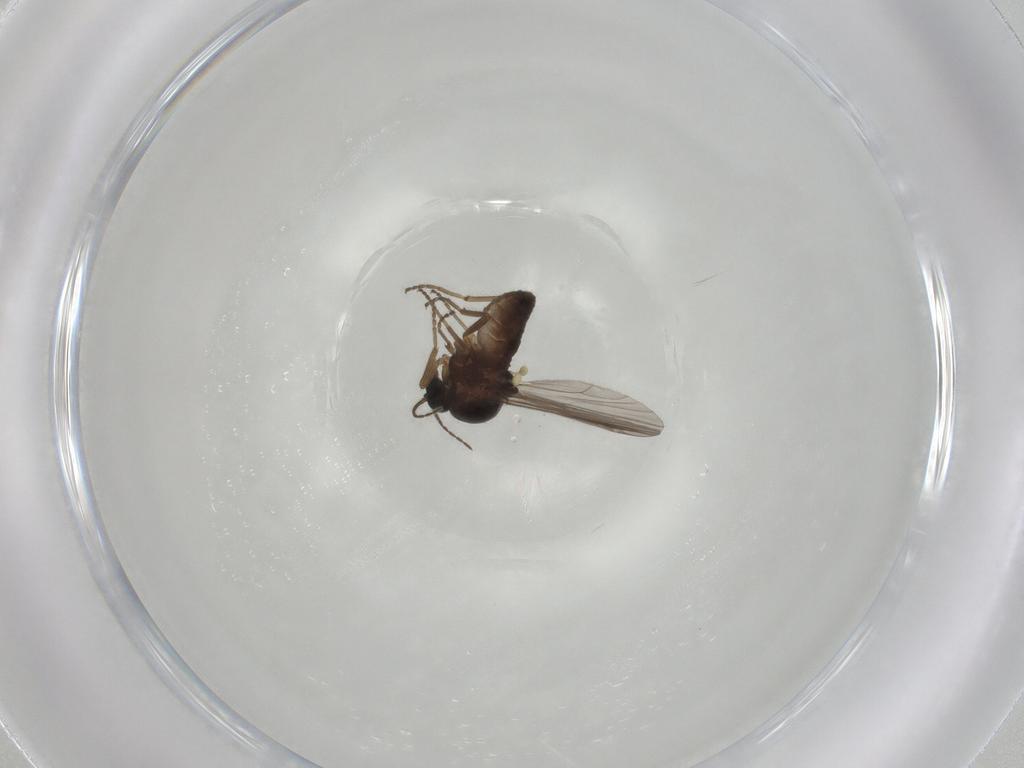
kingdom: Animalia
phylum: Arthropoda
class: Insecta
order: Diptera
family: Ceratopogonidae
